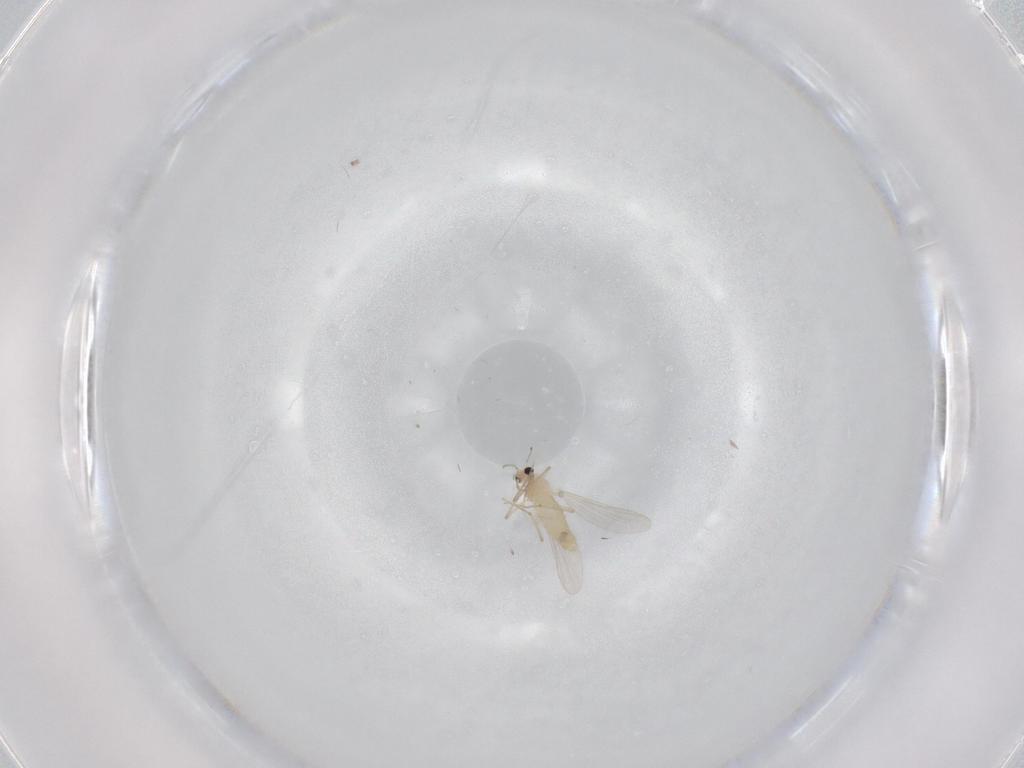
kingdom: Animalia
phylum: Arthropoda
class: Insecta
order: Diptera
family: Chironomidae
